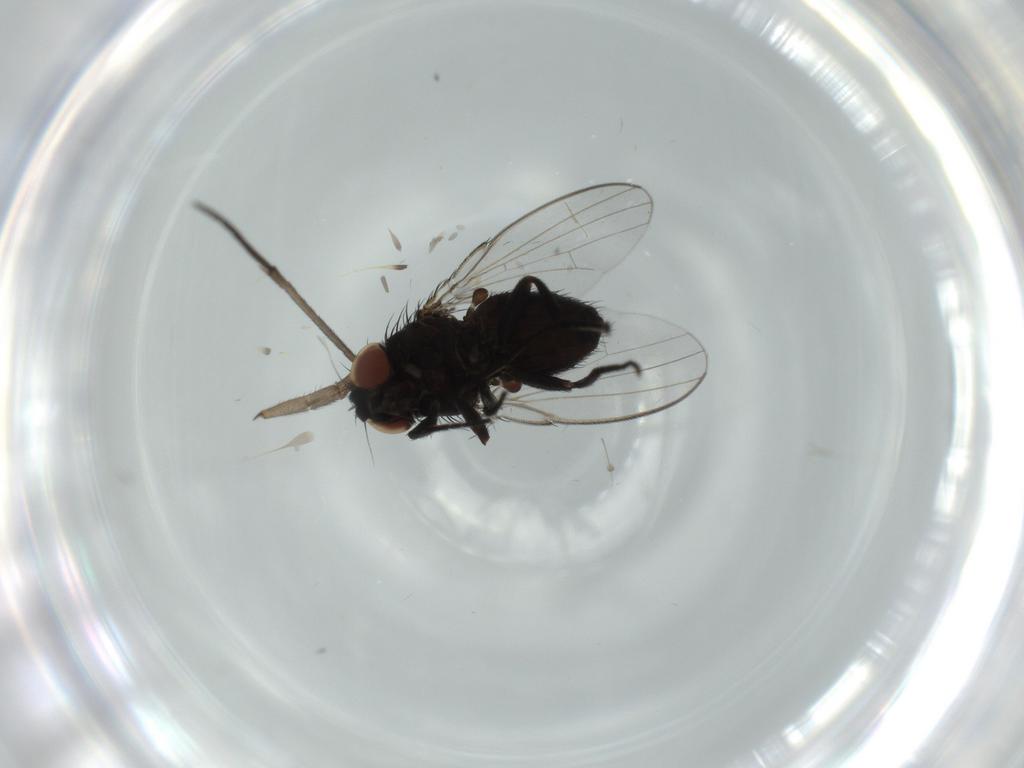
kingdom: Animalia
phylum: Arthropoda
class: Insecta
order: Diptera
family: Milichiidae
